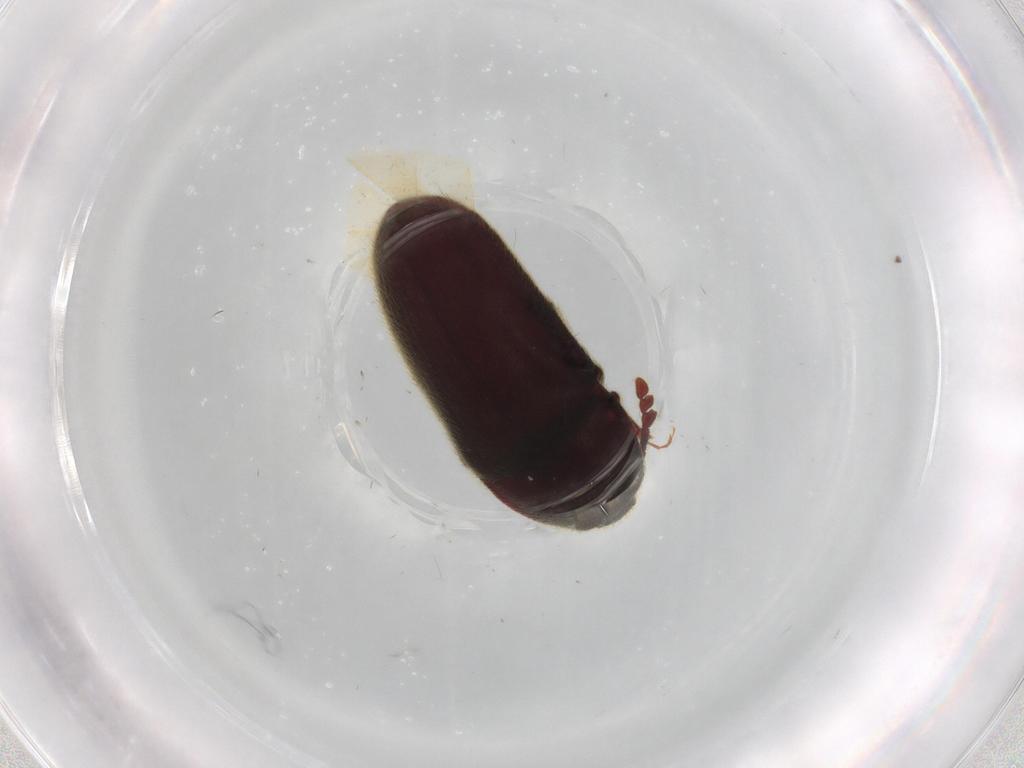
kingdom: Animalia
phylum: Arthropoda
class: Insecta
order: Coleoptera
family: Throscidae
